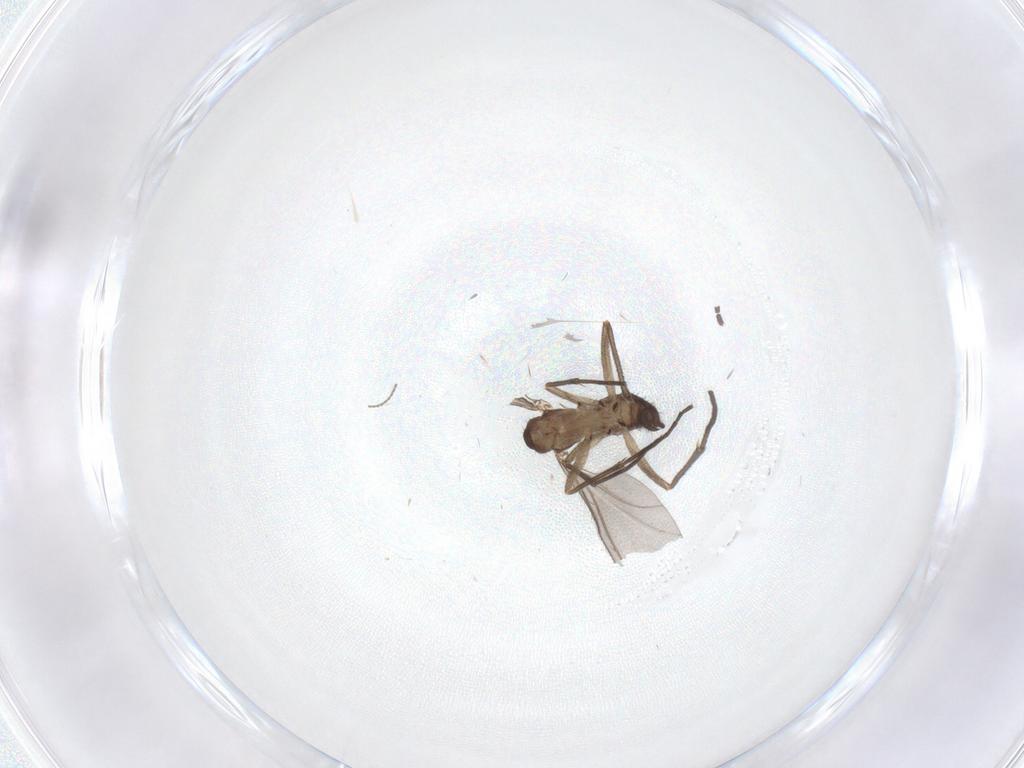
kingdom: Animalia
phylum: Arthropoda
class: Insecta
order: Diptera
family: Sciaridae
